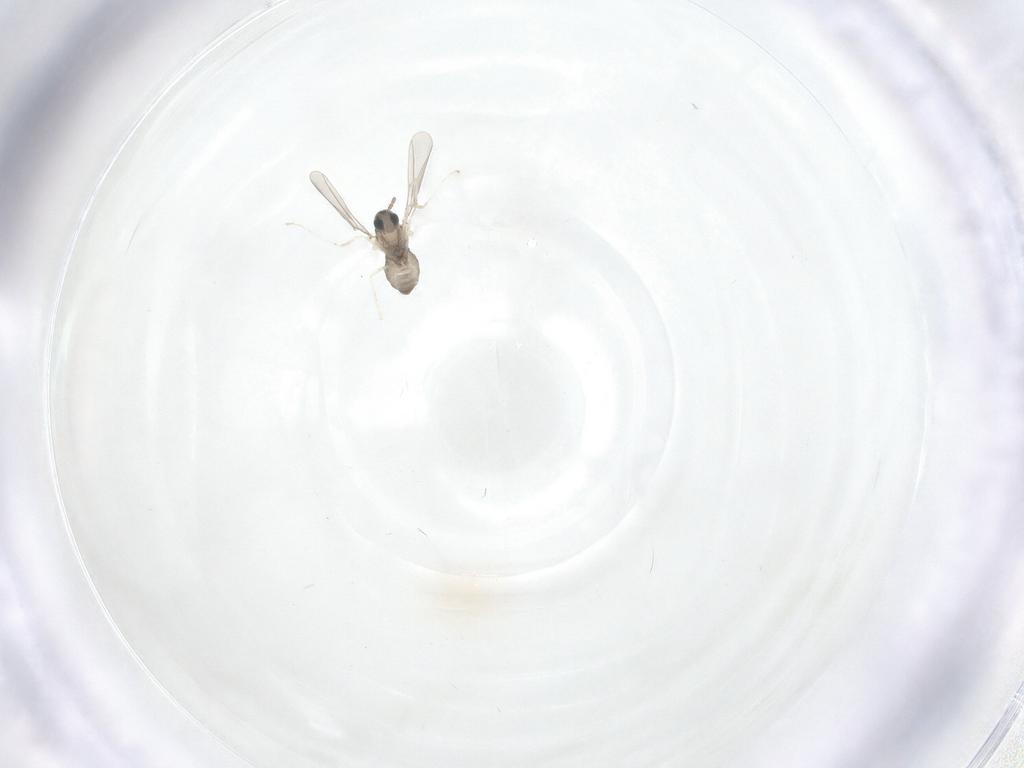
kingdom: Animalia
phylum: Arthropoda
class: Insecta
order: Diptera
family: Cecidomyiidae
